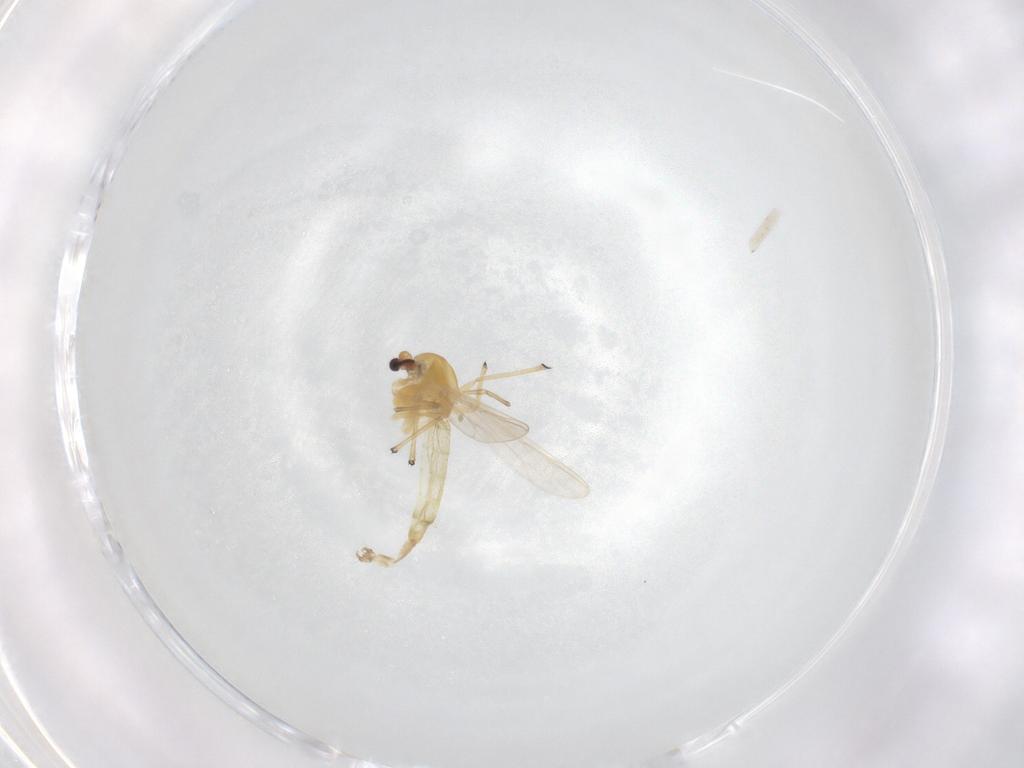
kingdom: Animalia
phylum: Arthropoda
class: Insecta
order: Diptera
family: Chironomidae
